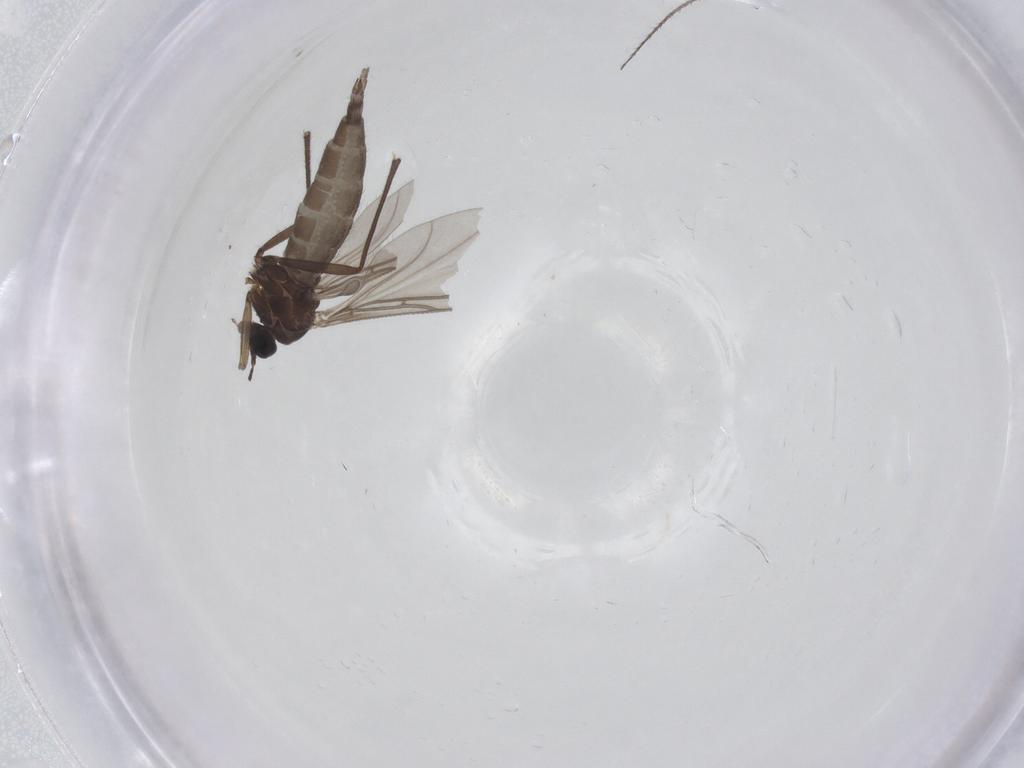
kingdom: Animalia
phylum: Arthropoda
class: Insecta
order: Diptera
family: Sciaridae
